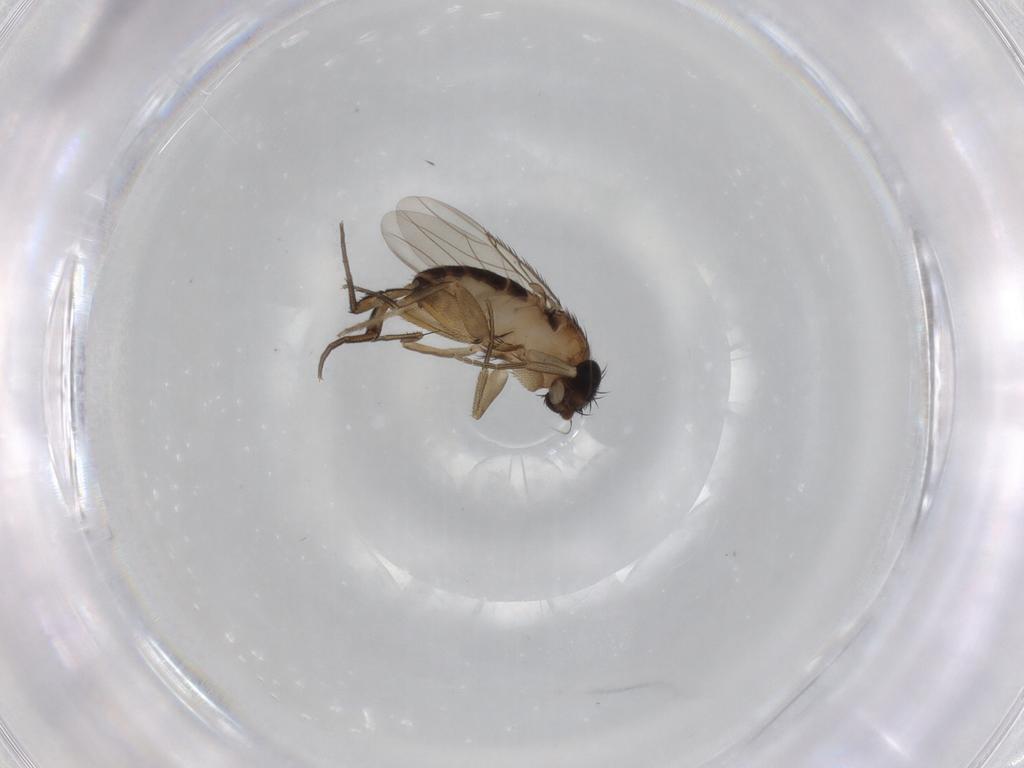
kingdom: Animalia
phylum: Arthropoda
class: Insecta
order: Diptera
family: Phoridae
